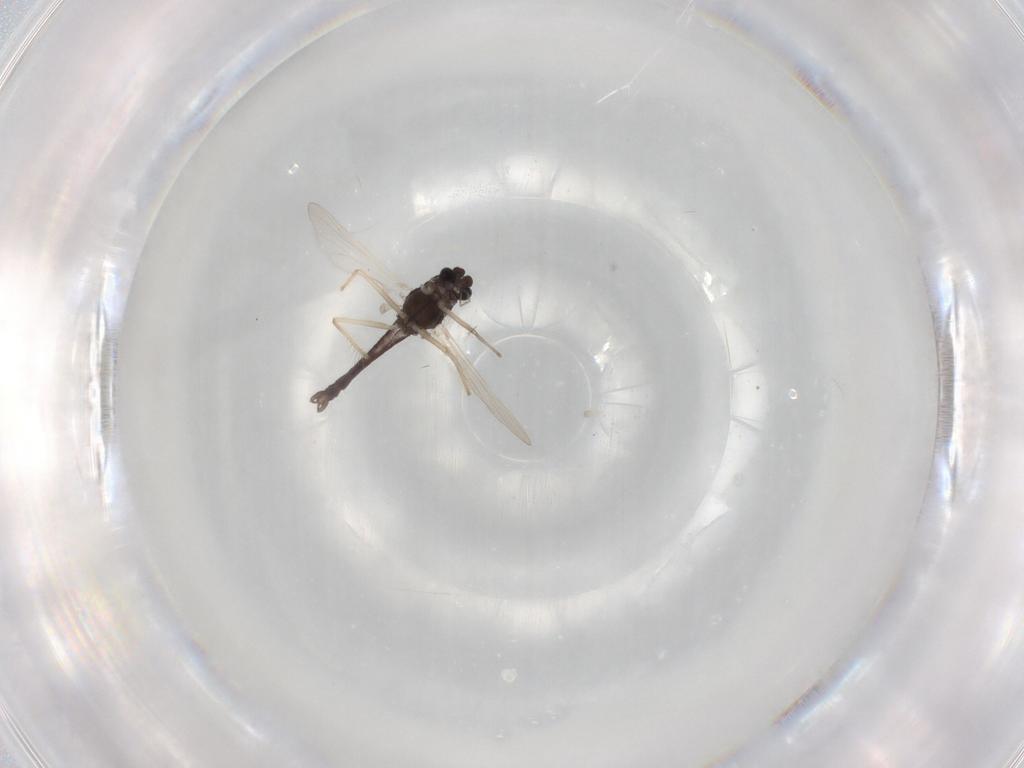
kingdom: Animalia
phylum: Arthropoda
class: Insecta
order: Diptera
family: Chironomidae
